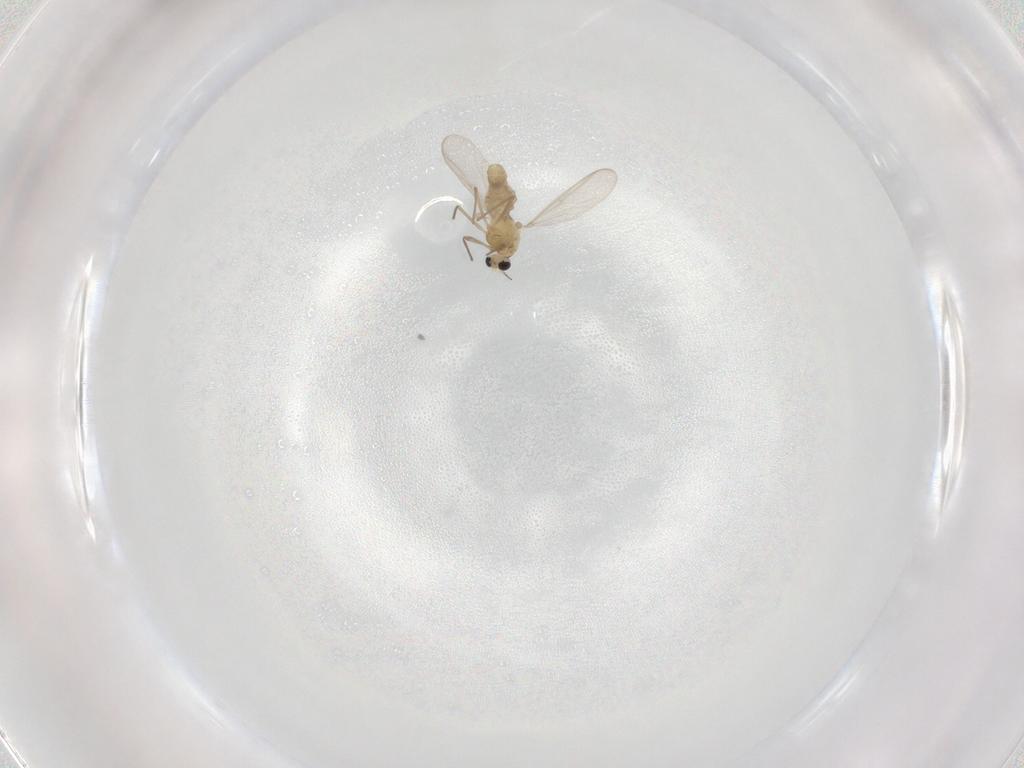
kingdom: Animalia
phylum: Arthropoda
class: Insecta
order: Diptera
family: Chironomidae
